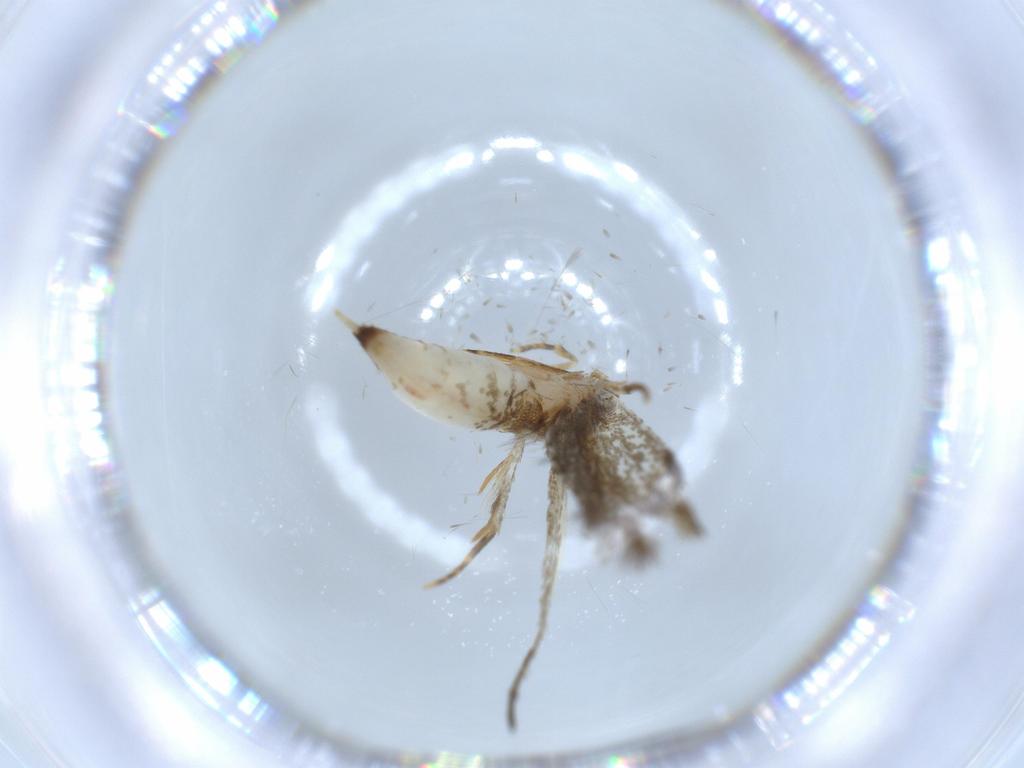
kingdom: Animalia
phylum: Arthropoda
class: Insecta
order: Lepidoptera
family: Tineidae
